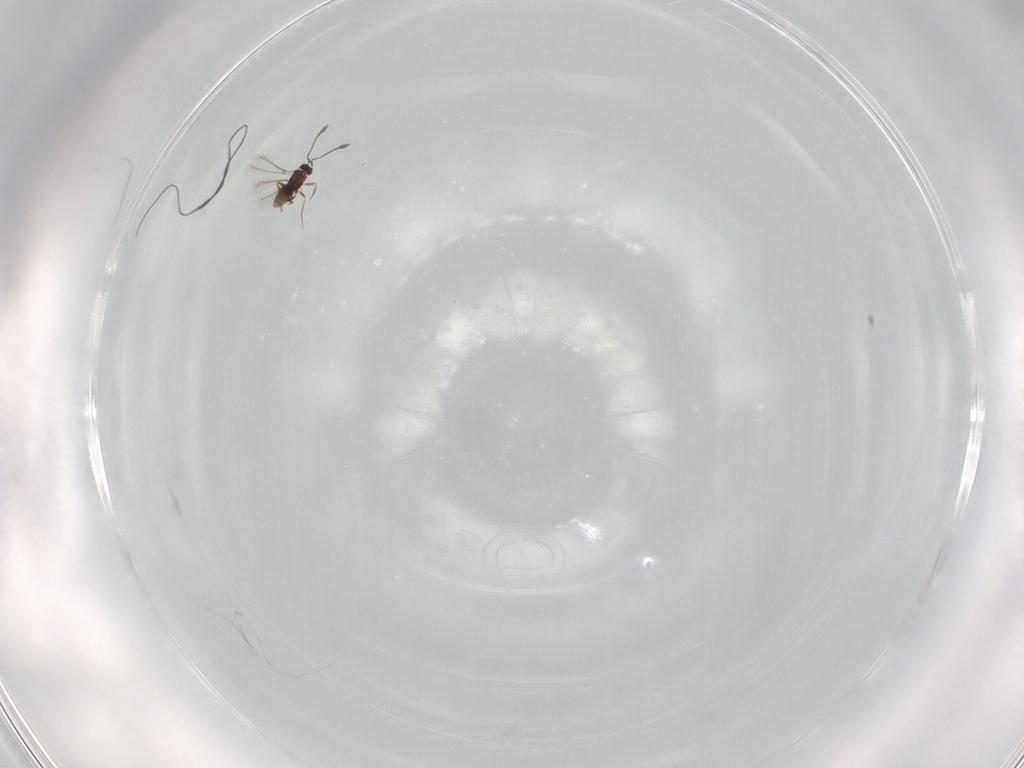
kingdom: Animalia
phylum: Arthropoda
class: Insecta
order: Hymenoptera
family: Mymaridae
